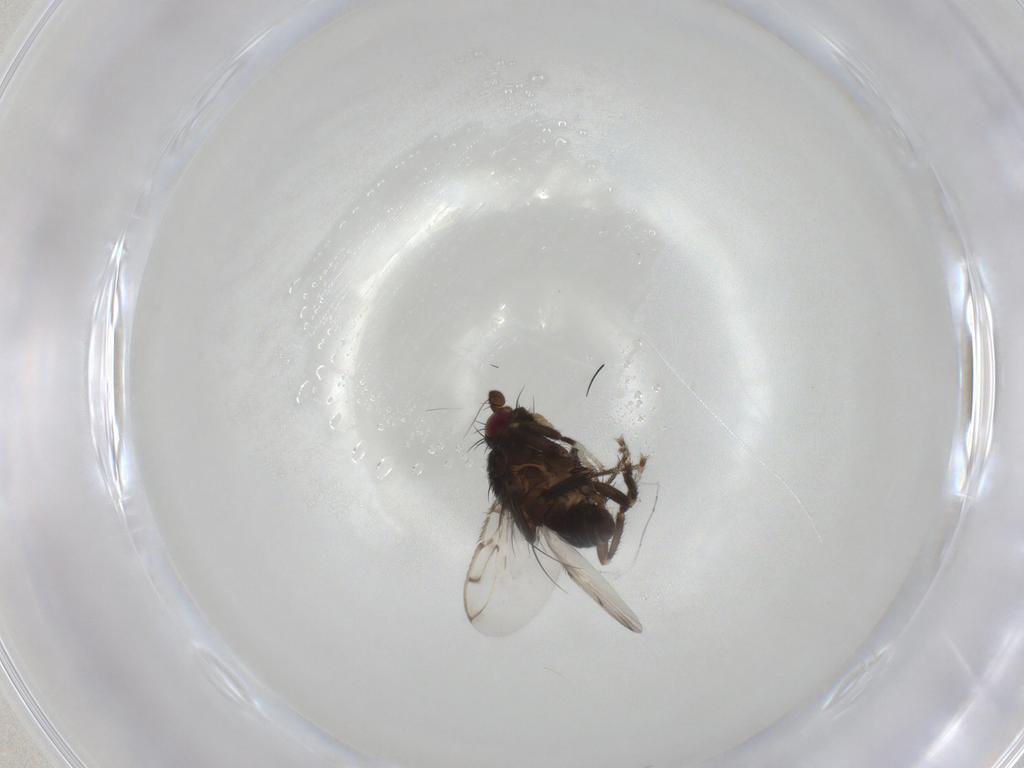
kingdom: Animalia
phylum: Arthropoda
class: Insecta
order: Diptera
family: Sphaeroceridae
